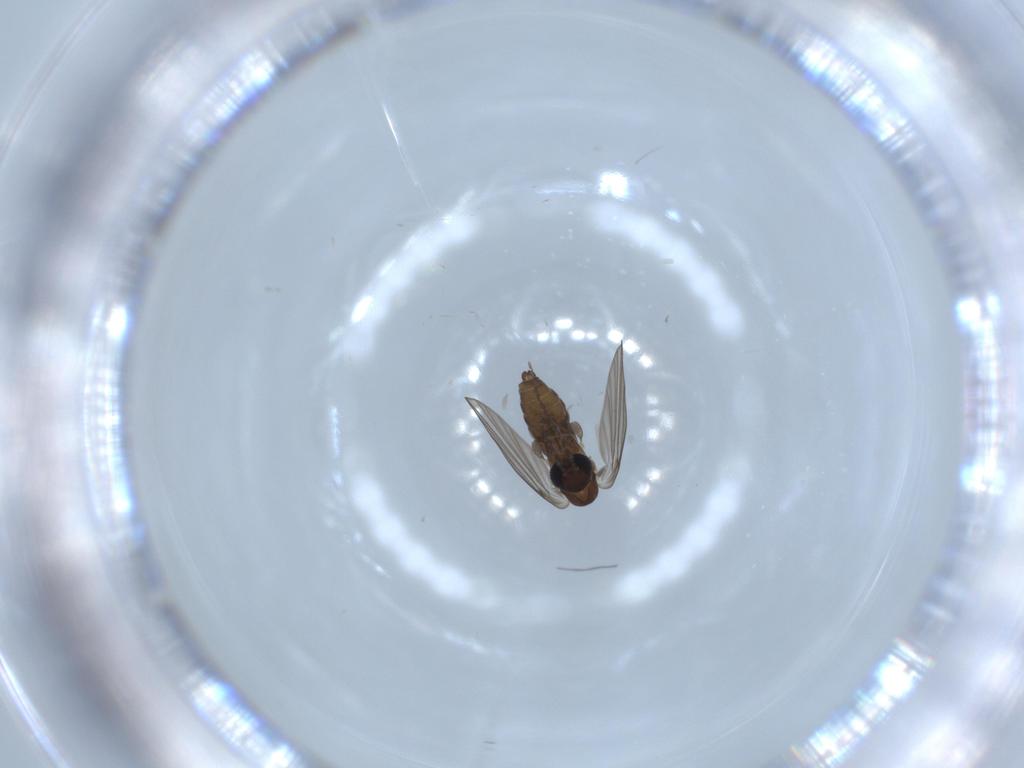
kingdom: Animalia
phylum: Arthropoda
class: Insecta
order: Diptera
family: Psychodidae
